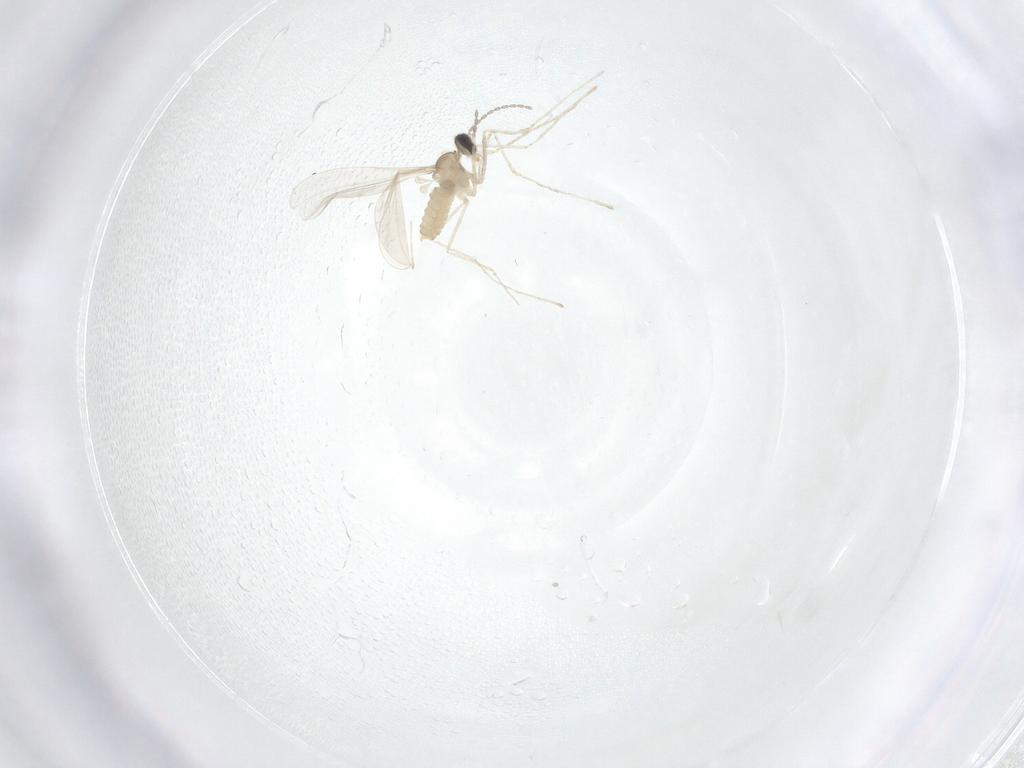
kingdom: Animalia
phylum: Arthropoda
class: Insecta
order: Diptera
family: Cecidomyiidae
